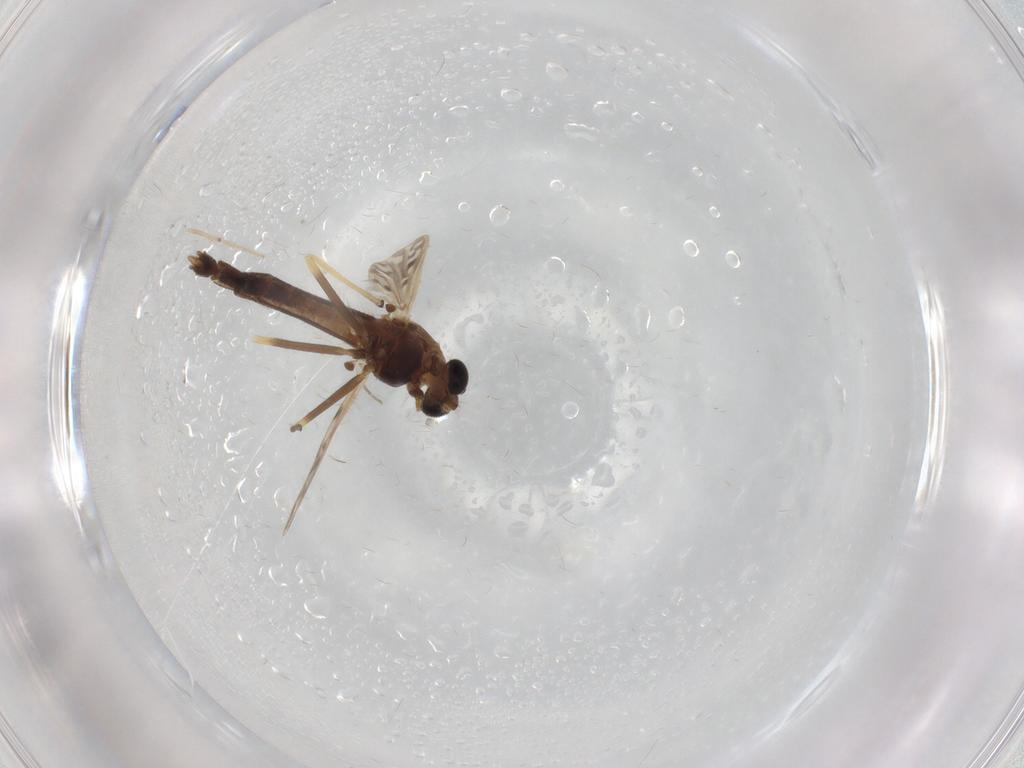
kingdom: Animalia
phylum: Arthropoda
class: Insecta
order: Diptera
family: Chironomidae
